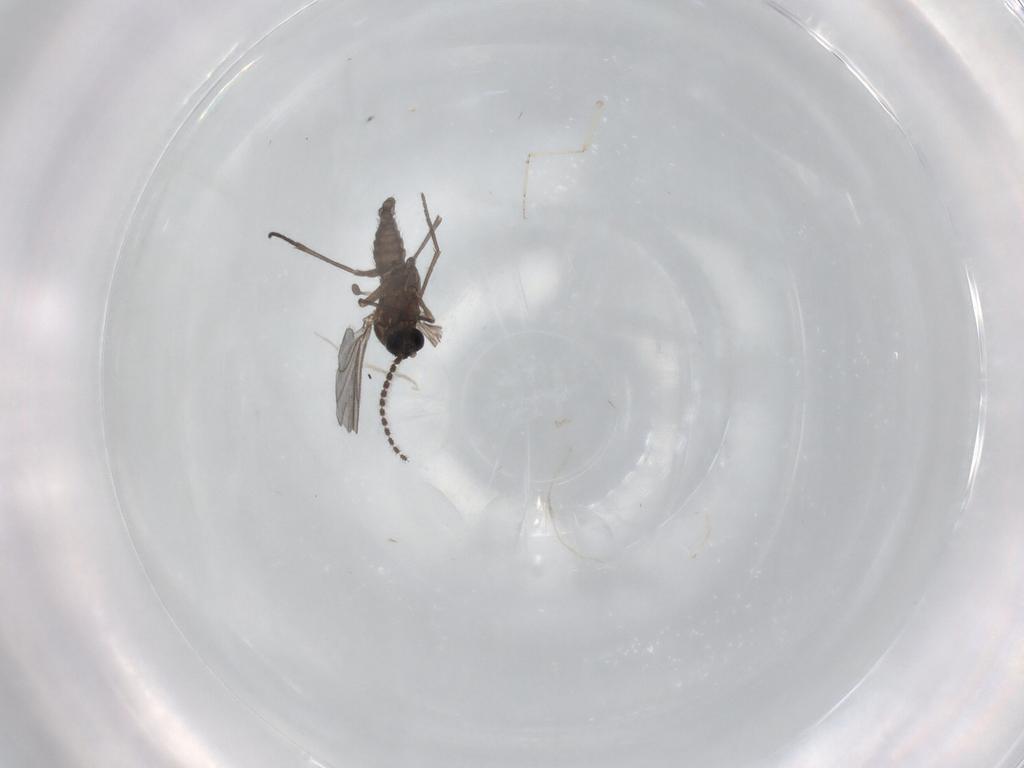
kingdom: Animalia
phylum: Arthropoda
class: Insecta
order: Diptera
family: Sciaridae
